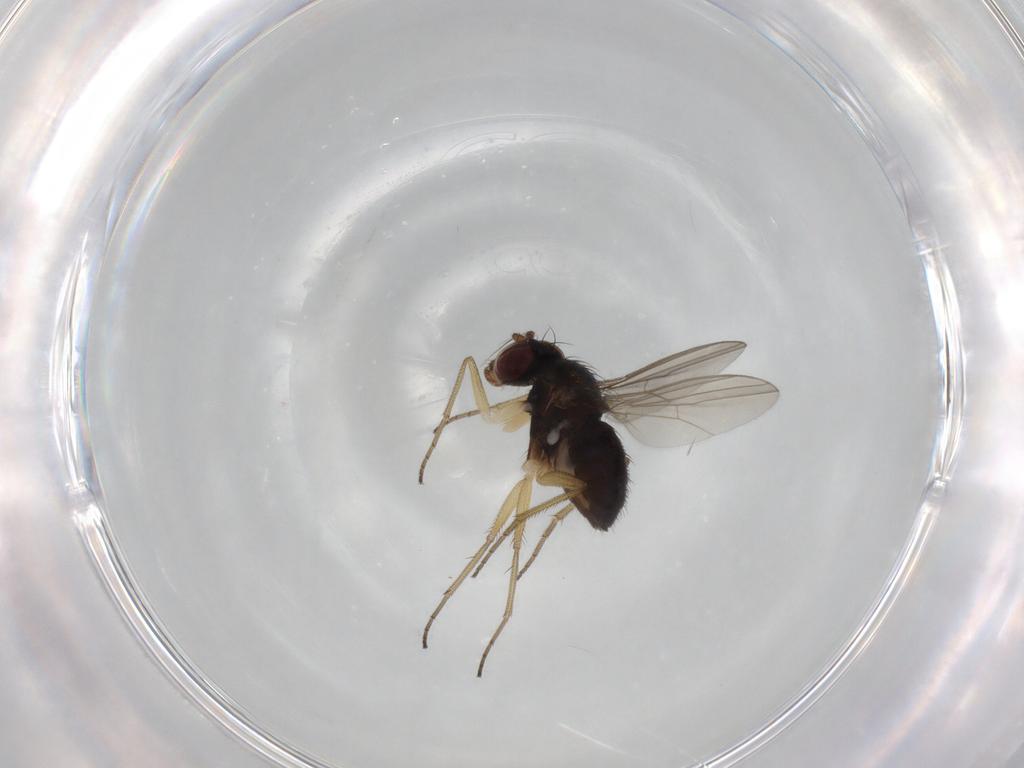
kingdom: Animalia
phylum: Arthropoda
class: Insecta
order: Diptera
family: Dolichopodidae
